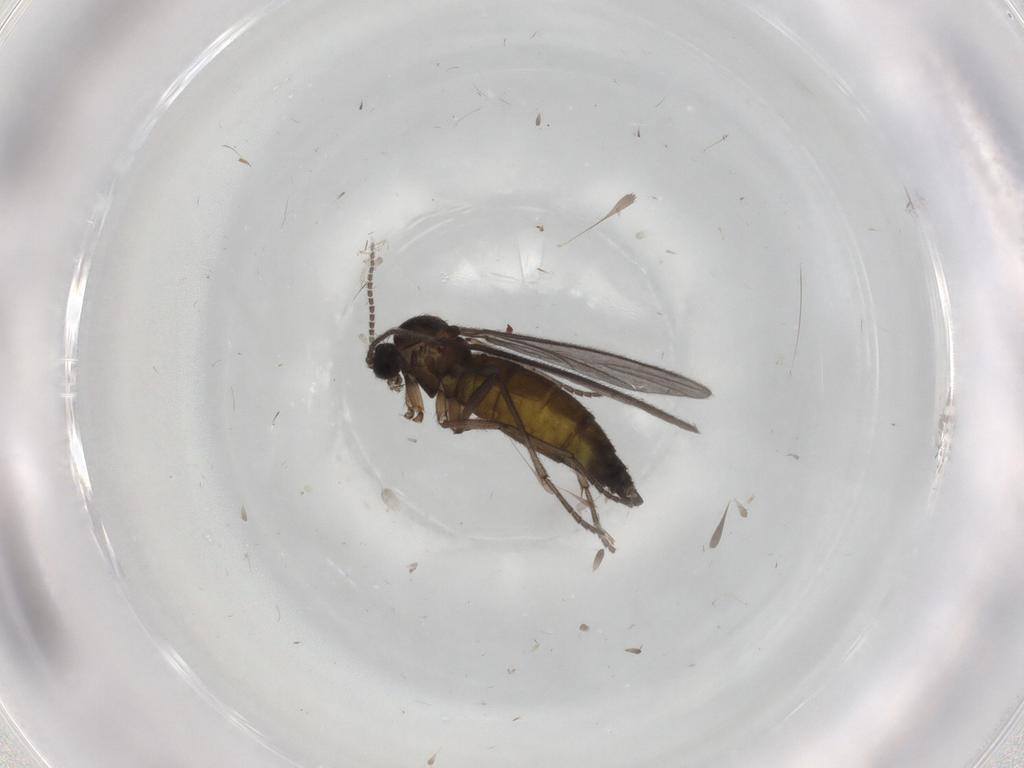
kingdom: Animalia
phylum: Arthropoda
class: Insecta
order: Diptera
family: Sciaridae
